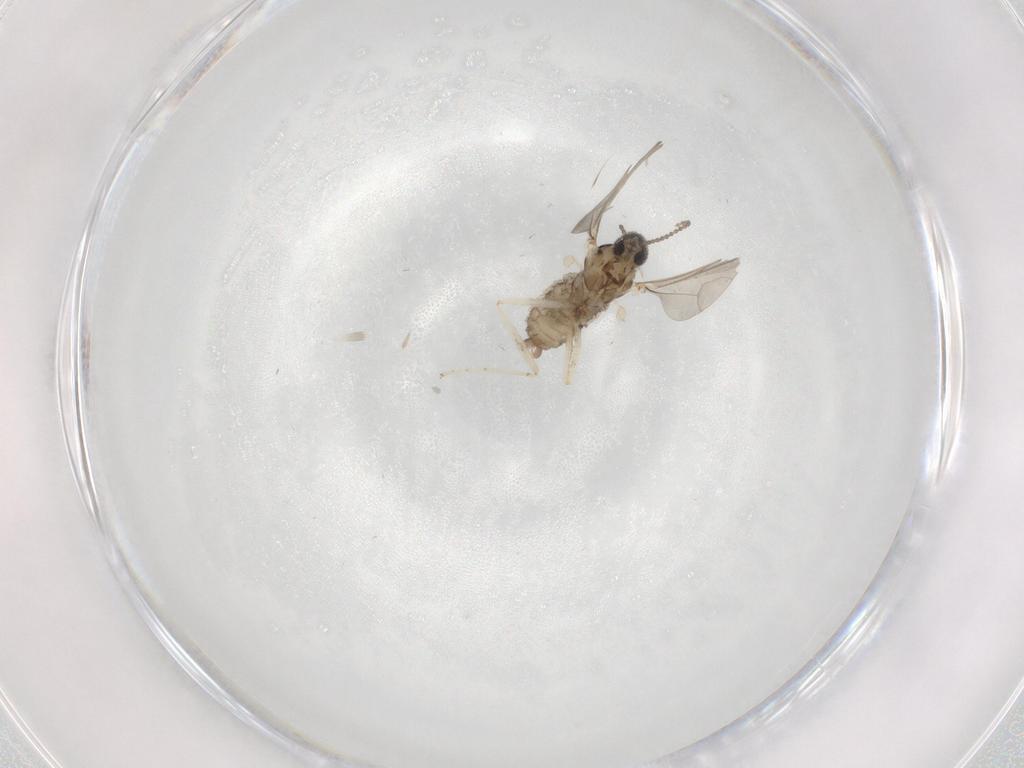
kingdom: Animalia
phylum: Arthropoda
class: Insecta
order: Diptera
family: Cecidomyiidae
